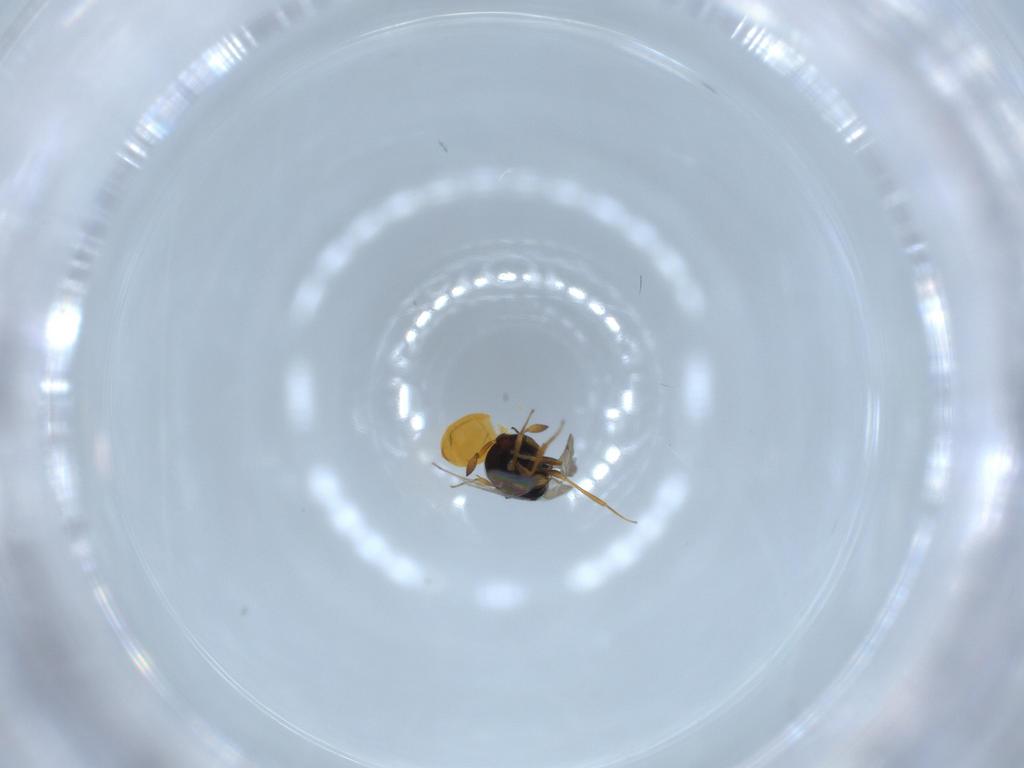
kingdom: Animalia
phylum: Arthropoda
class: Insecta
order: Hymenoptera
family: Scelionidae
